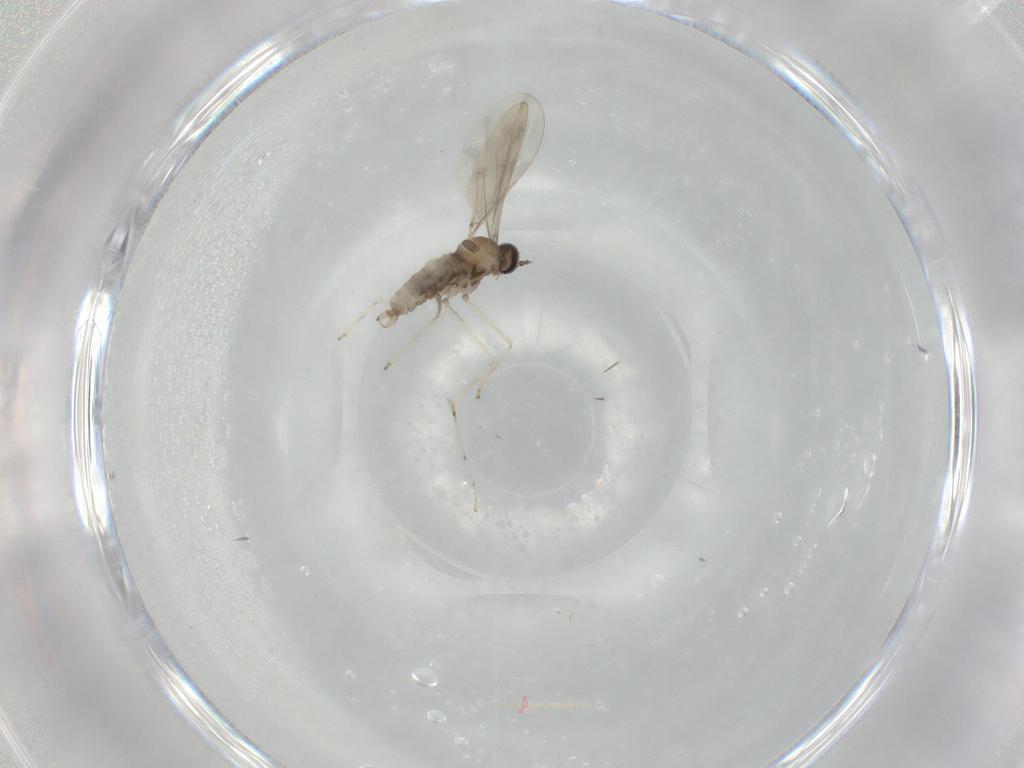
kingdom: Animalia
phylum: Arthropoda
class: Insecta
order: Diptera
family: Cecidomyiidae
